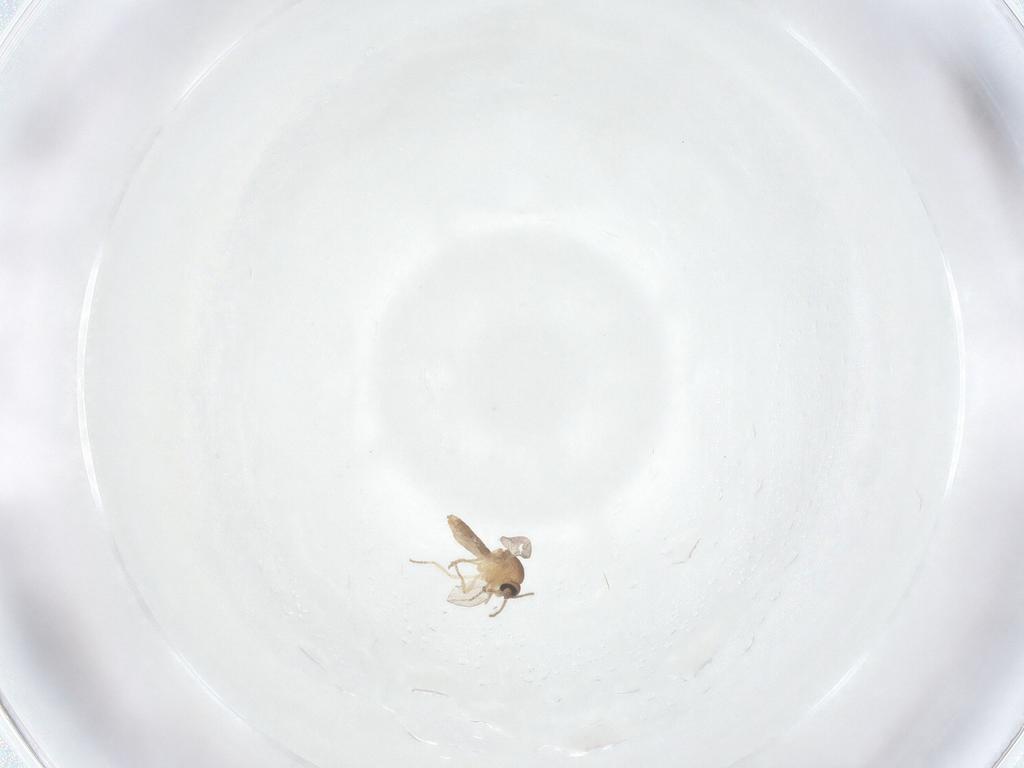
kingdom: Animalia
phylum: Arthropoda
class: Insecta
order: Diptera
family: Ceratopogonidae
